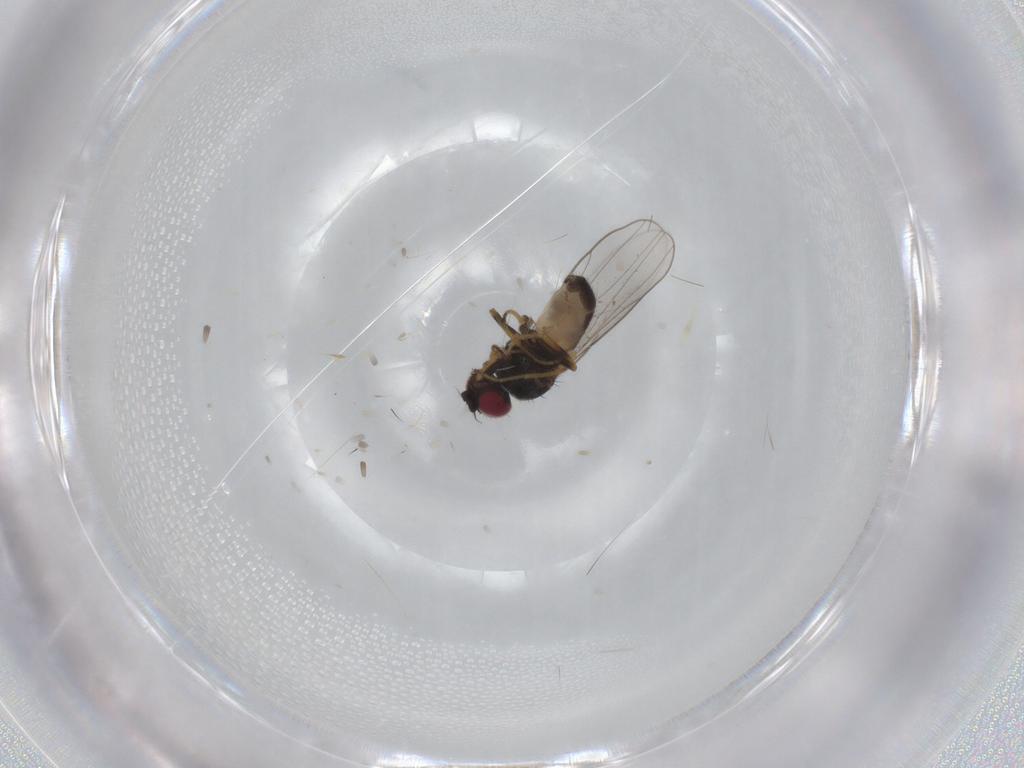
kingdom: Animalia
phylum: Arthropoda
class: Insecta
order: Diptera
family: Chloropidae
